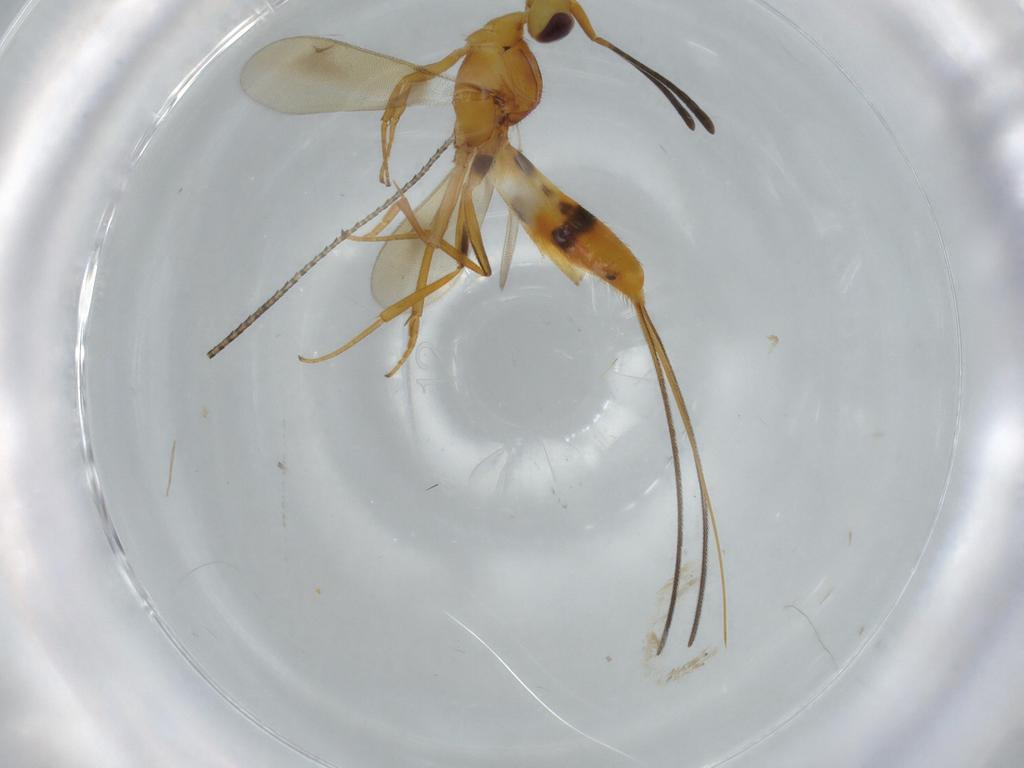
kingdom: Animalia
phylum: Arthropoda
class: Insecta
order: Hymenoptera
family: Mymarommatidae
